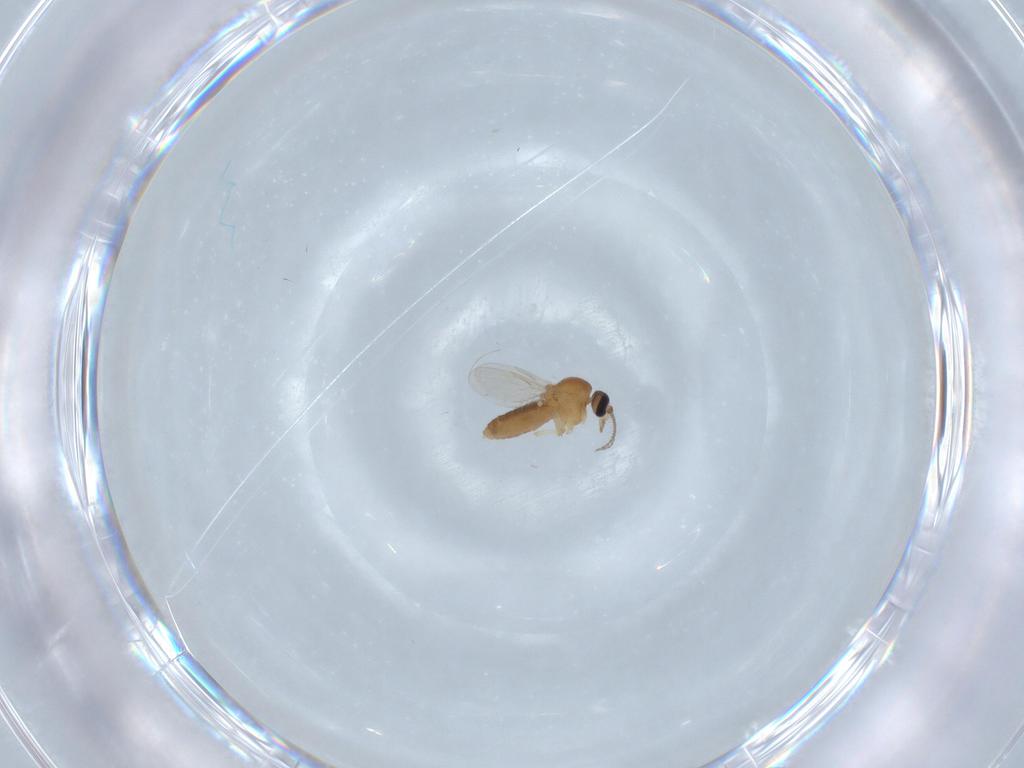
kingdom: Animalia
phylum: Arthropoda
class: Insecta
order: Diptera
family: Ceratopogonidae
